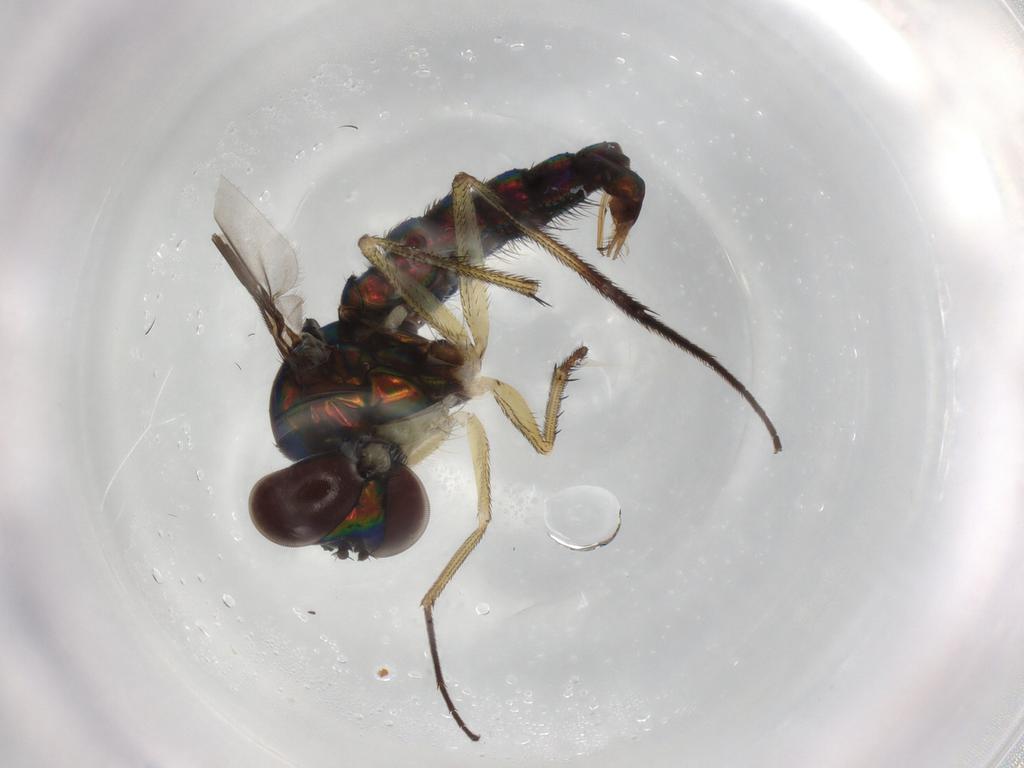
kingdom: Animalia
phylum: Arthropoda
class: Insecta
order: Diptera
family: Dolichopodidae
